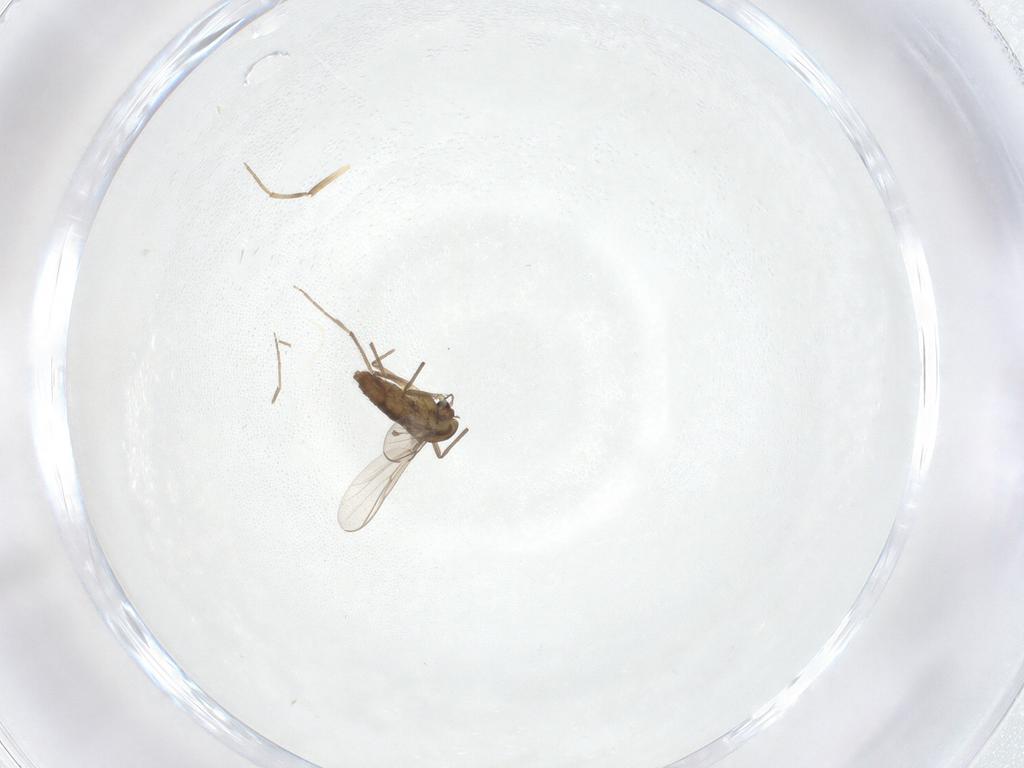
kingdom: Animalia
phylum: Arthropoda
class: Insecta
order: Diptera
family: Limoniidae
